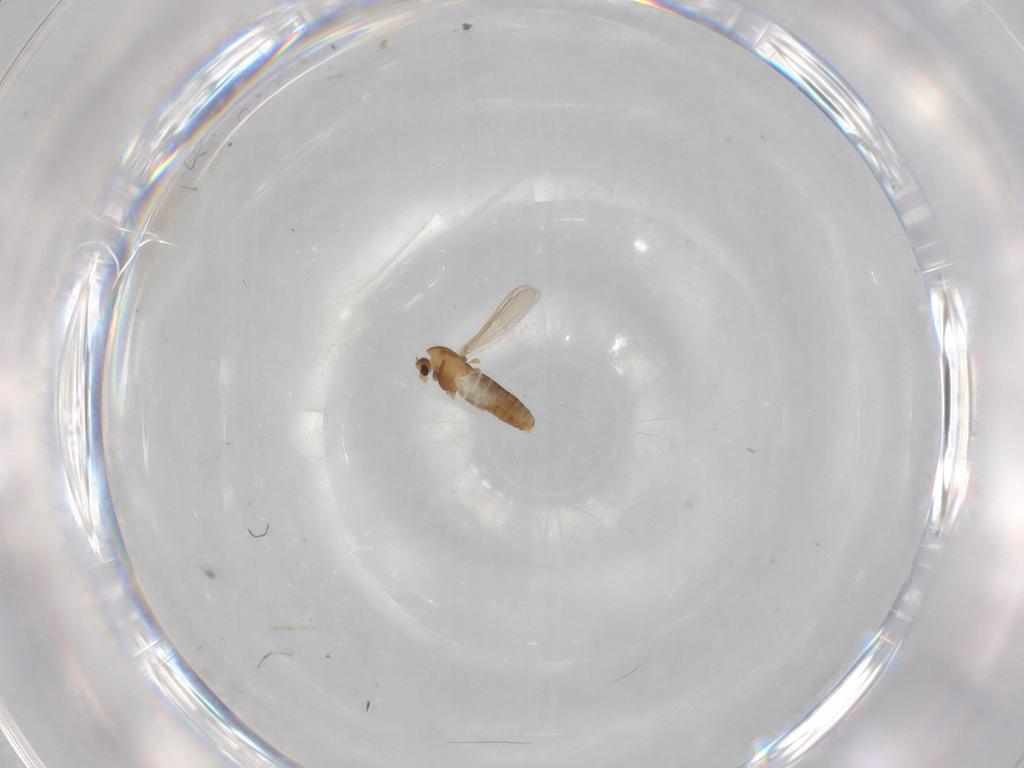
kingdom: Animalia
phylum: Arthropoda
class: Insecta
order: Diptera
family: Chironomidae
